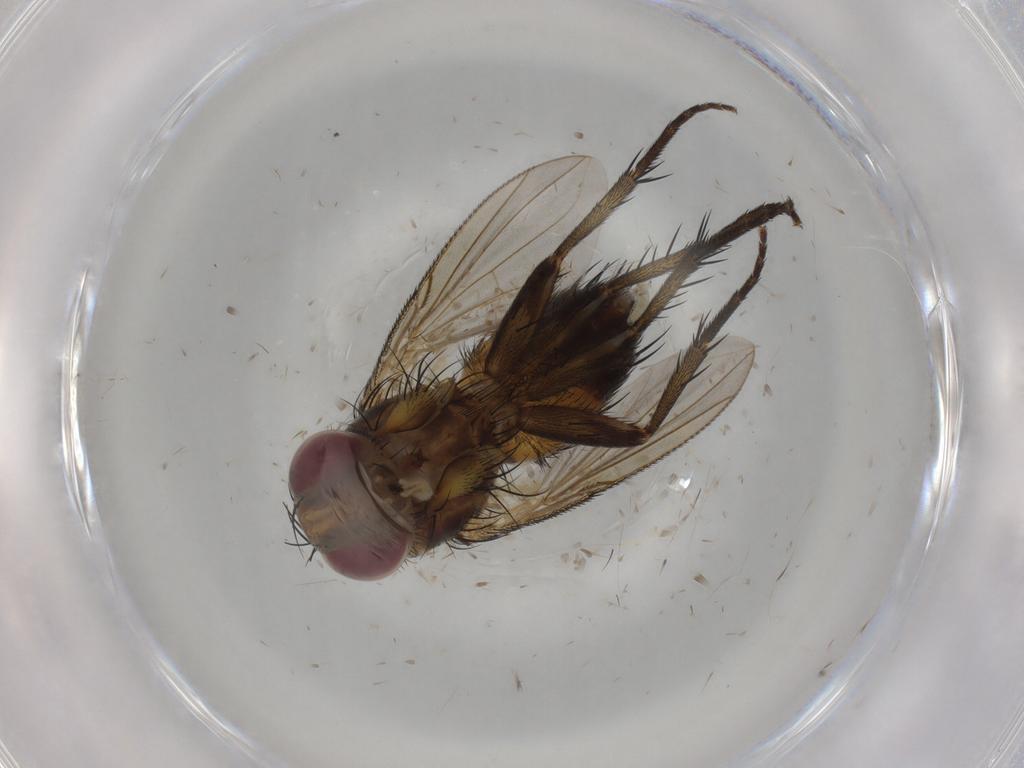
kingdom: Animalia
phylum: Arthropoda
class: Insecta
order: Diptera
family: Tachinidae
